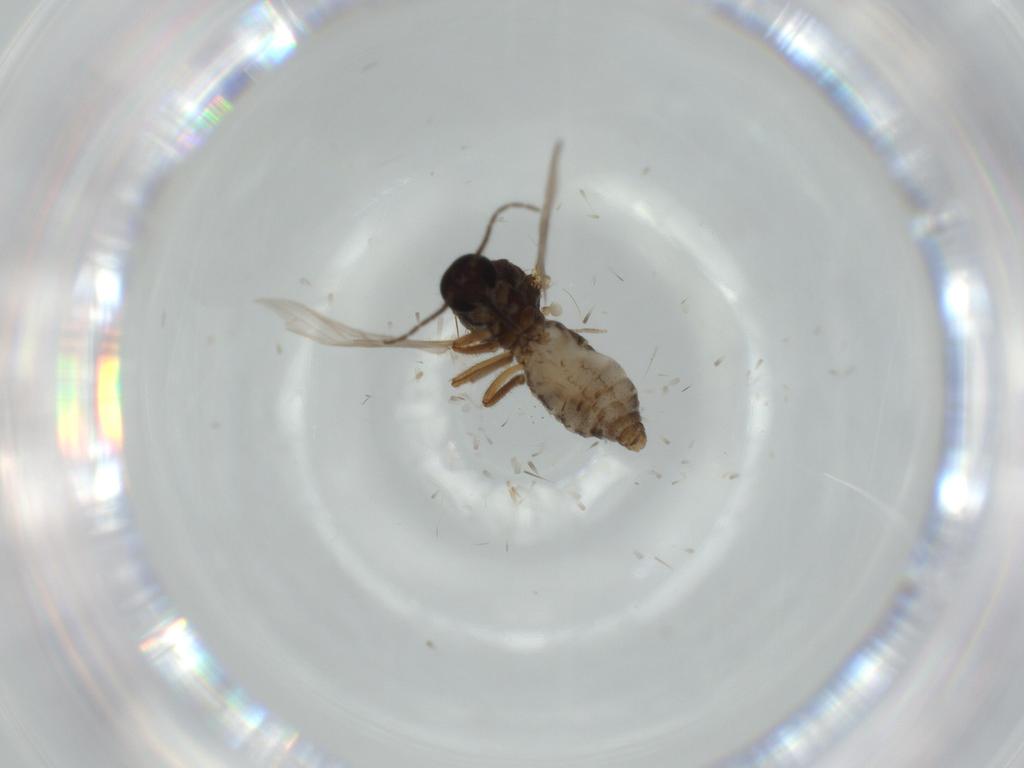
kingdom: Animalia
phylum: Arthropoda
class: Insecta
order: Diptera
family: Ceratopogonidae
